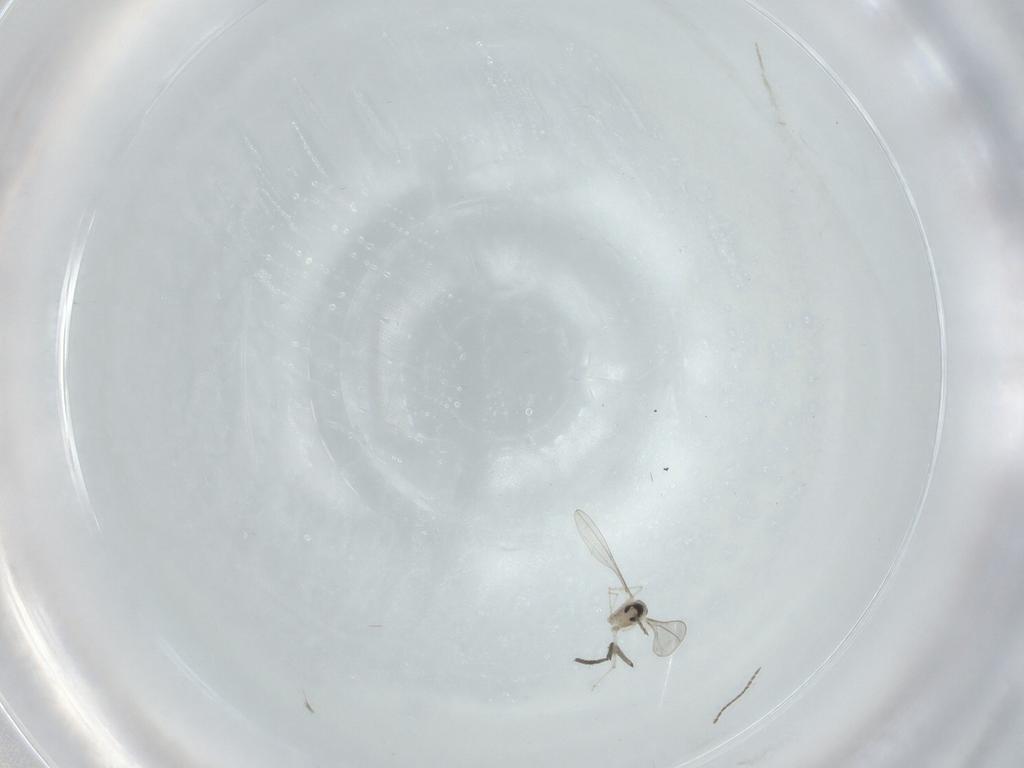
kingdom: Animalia
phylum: Arthropoda
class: Insecta
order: Diptera
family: Cecidomyiidae
